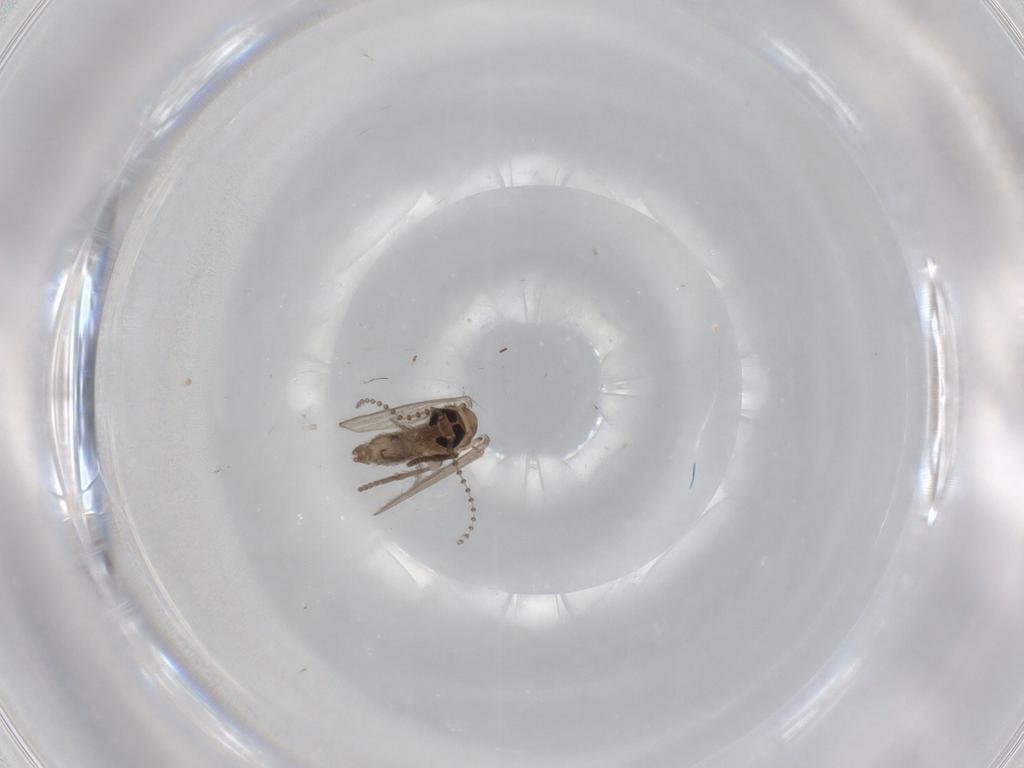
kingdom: Animalia
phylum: Arthropoda
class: Insecta
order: Diptera
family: Psychodidae
